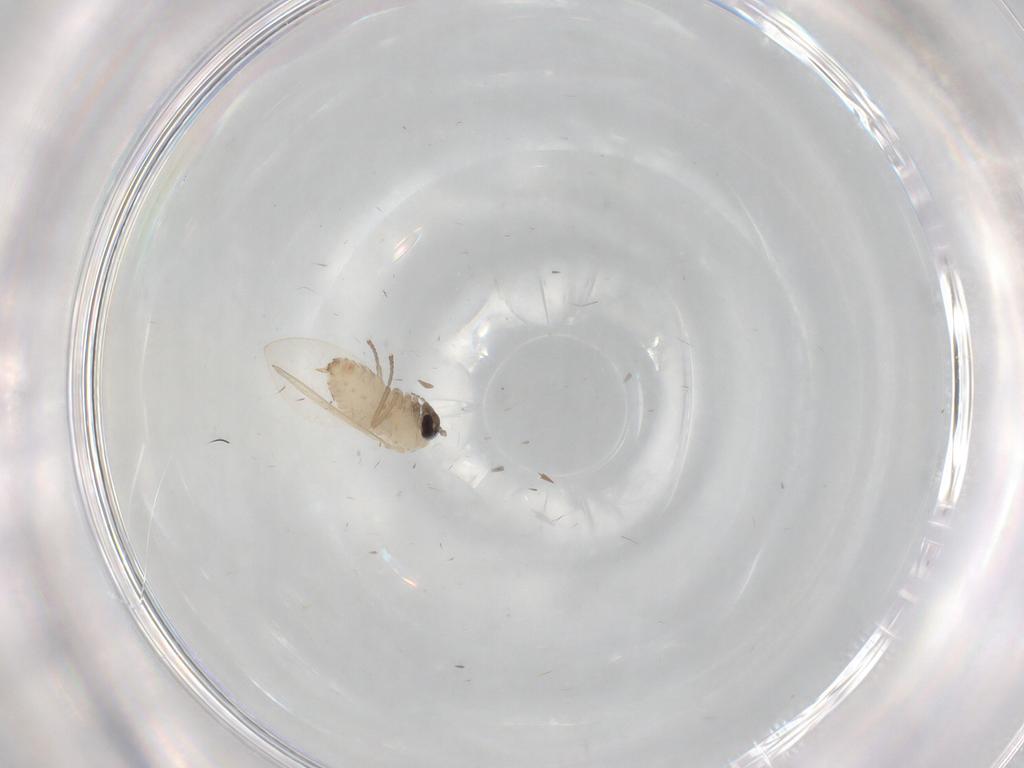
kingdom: Animalia
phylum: Arthropoda
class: Insecta
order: Diptera
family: Psychodidae
